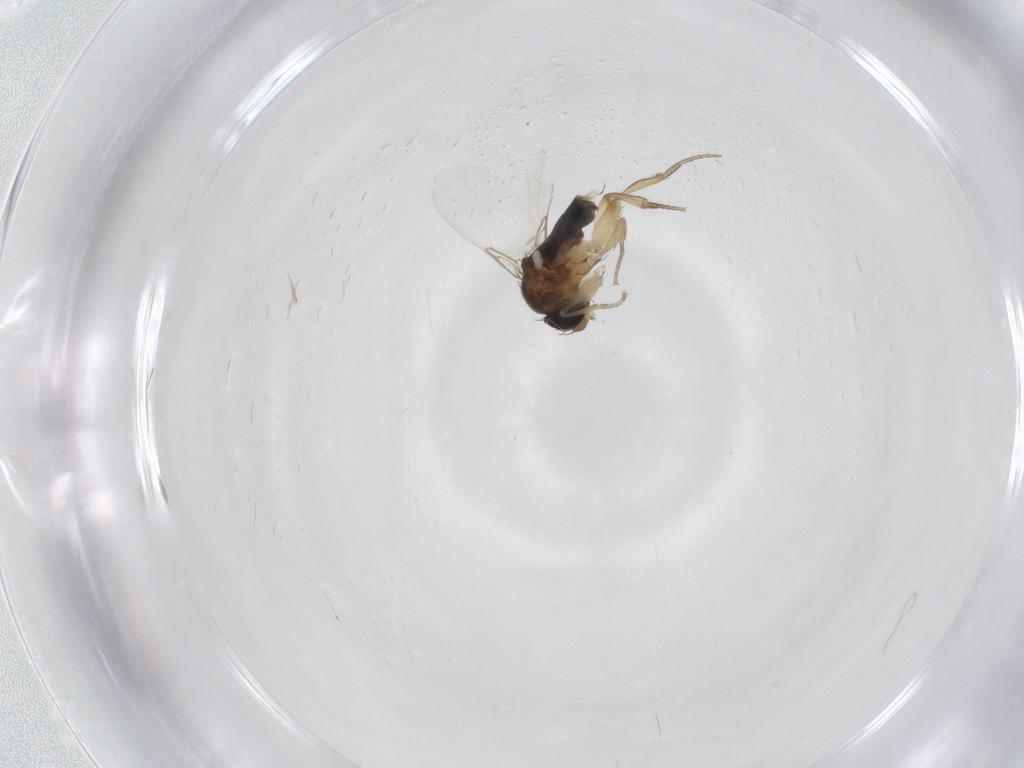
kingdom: Animalia
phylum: Arthropoda
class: Insecta
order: Diptera
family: Phoridae
